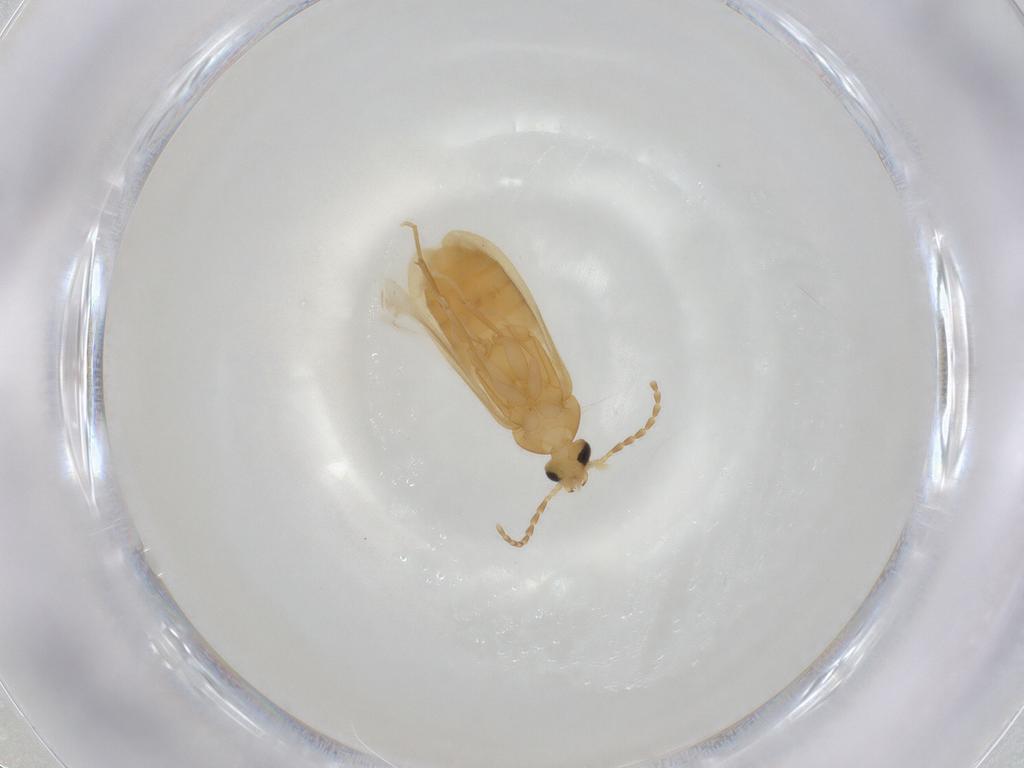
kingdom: Animalia
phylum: Arthropoda
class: Insecta
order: Coleoptera
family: Scraptiidae
